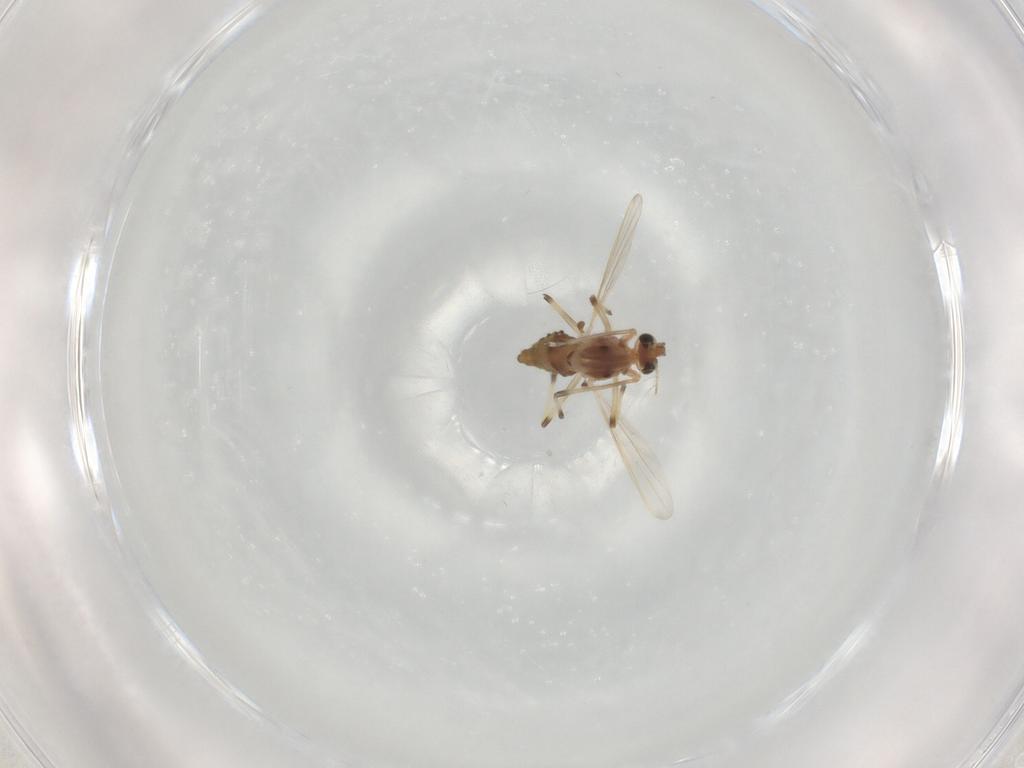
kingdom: Animalia
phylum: Arthropoda
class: Insecta
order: Diptera
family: Chironomidae
